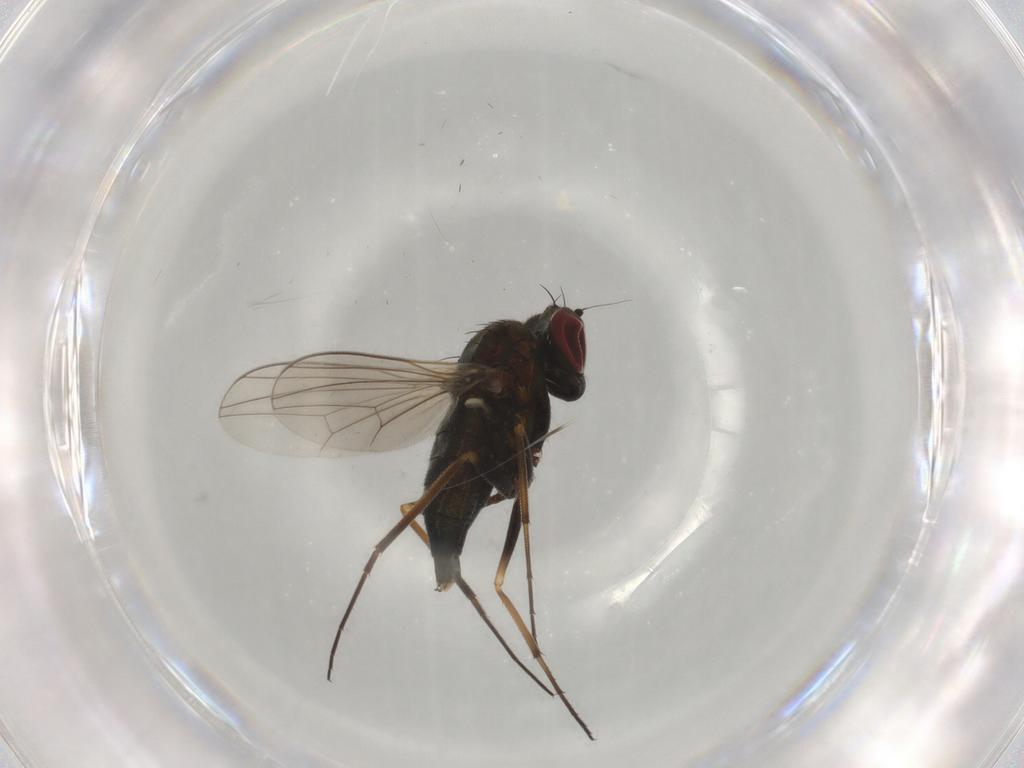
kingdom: Animalia
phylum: Arthropoda
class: Insecta
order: Diptera
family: Dolichopodidae
